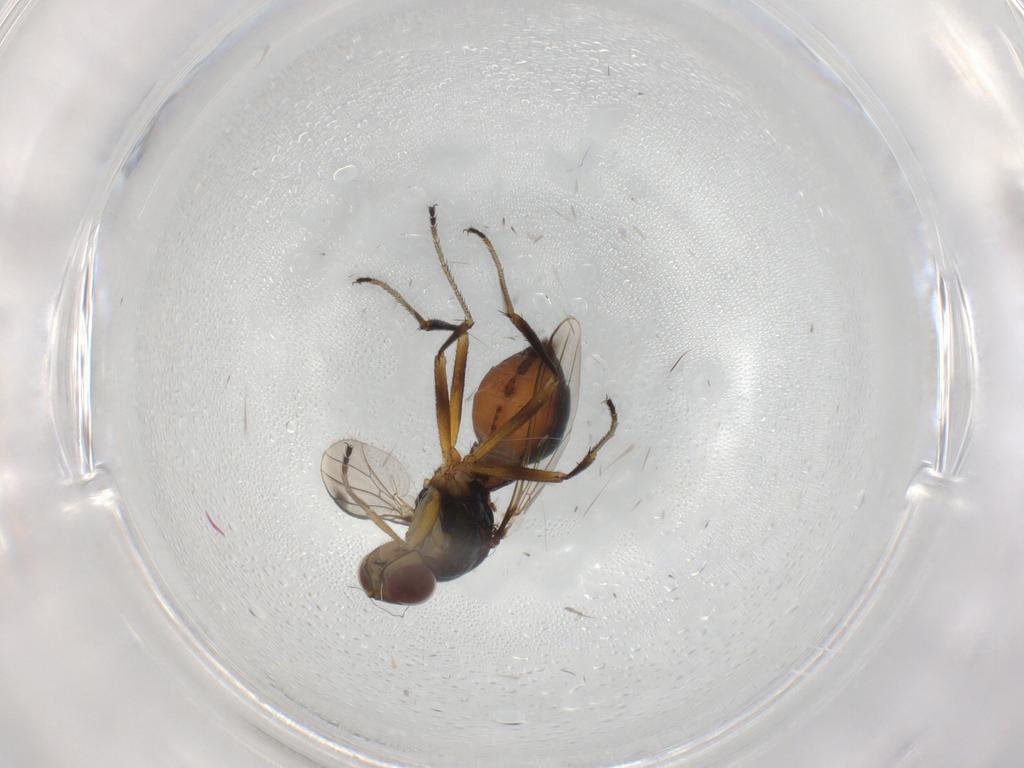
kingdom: Animalia
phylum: Arthropoda
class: Insecta
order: Diptera
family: Sepsidae
